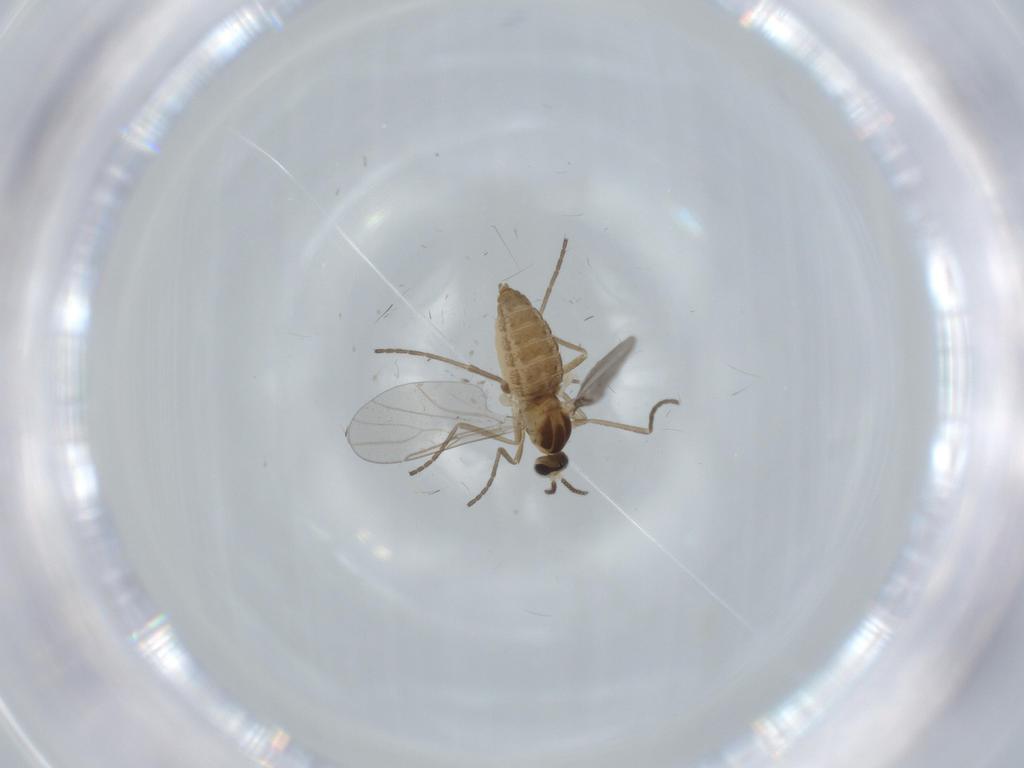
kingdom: Animalia
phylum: Arthropoda
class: Insecta
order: Diptera
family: Cecidomyiidae
